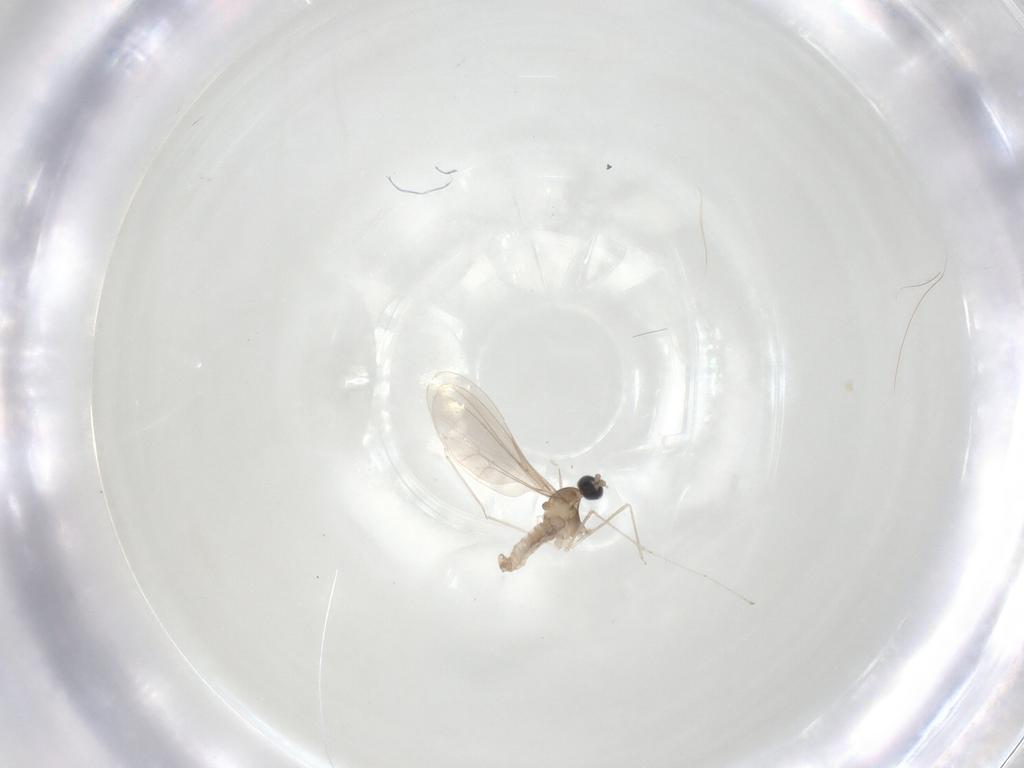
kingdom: Animalia
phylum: Arthropoda
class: Insecta
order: Diptera
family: Cecidomyiidae
